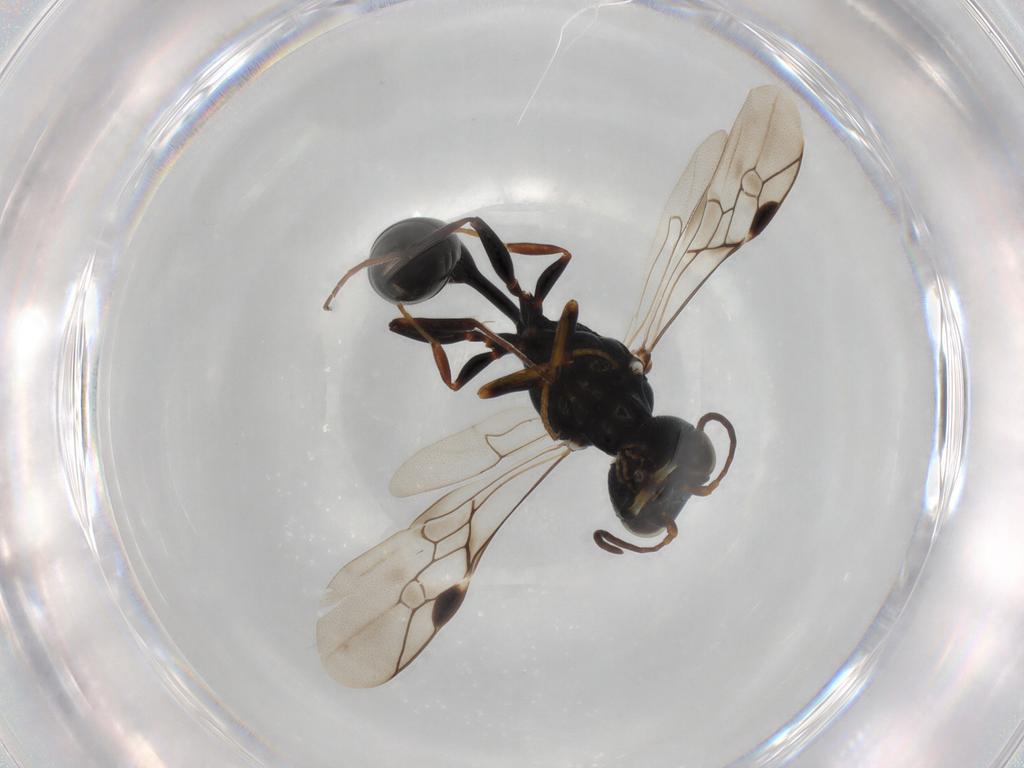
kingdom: Animalia
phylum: Arthropoda
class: Insecta
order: Hymenoptera
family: Pemphredonidae
